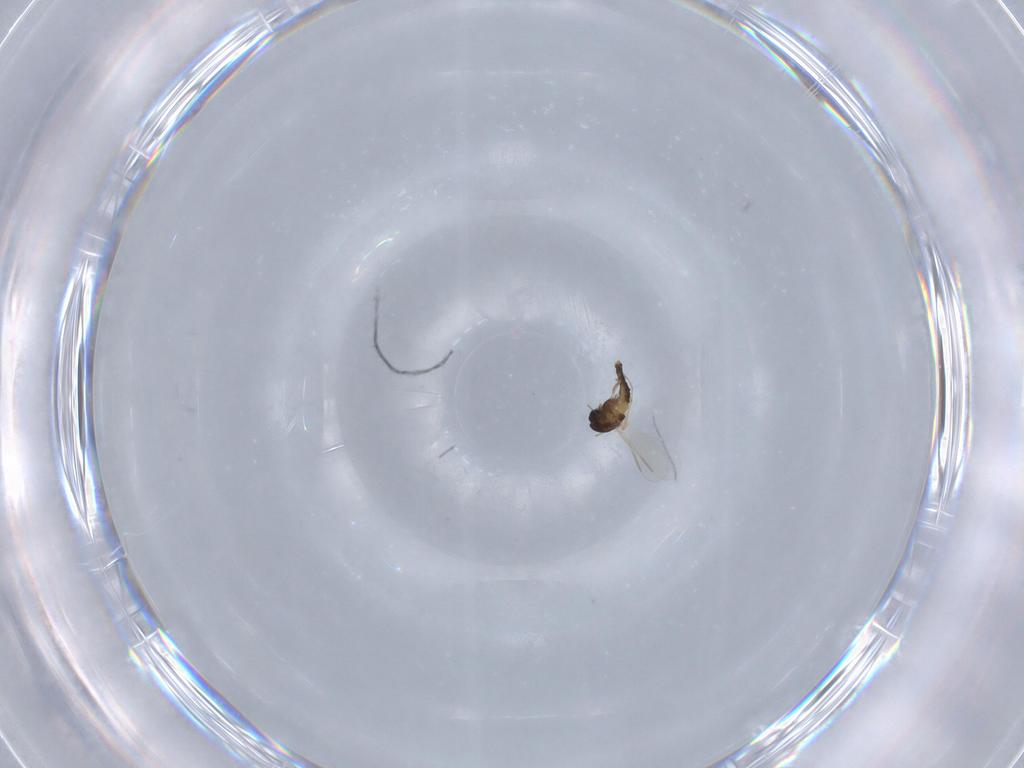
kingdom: Animalia
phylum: Arthropoda
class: Insecta
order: Diptera
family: Chironomidae
